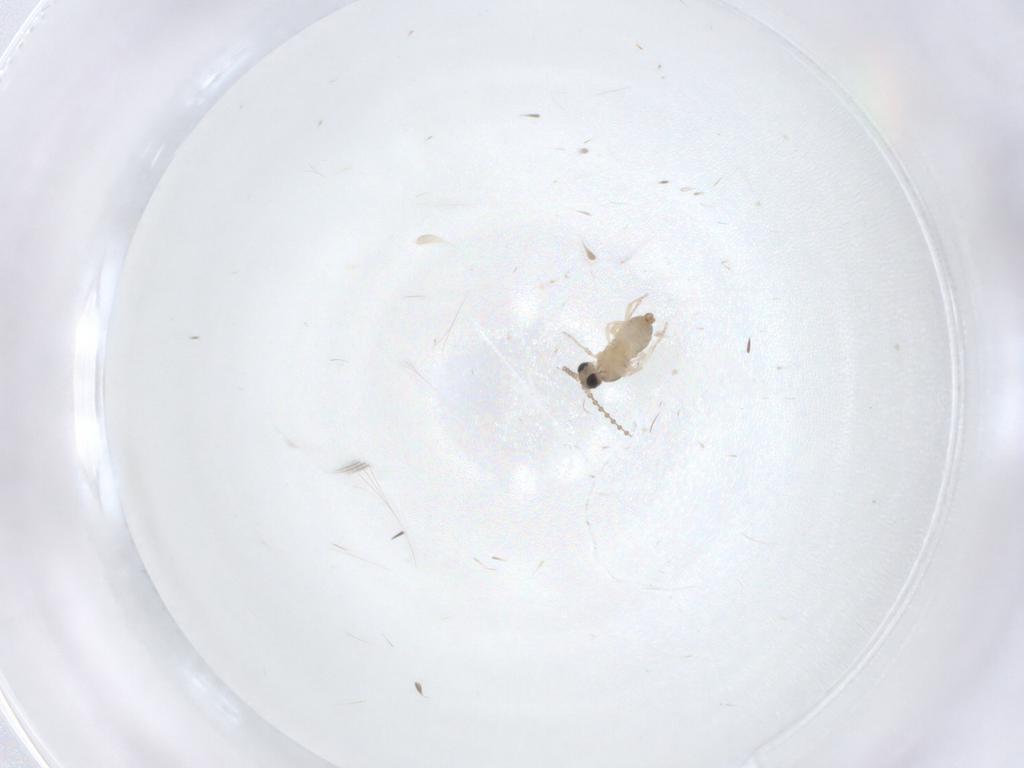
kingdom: Animalia
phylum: Arthropoda
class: Insecta
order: Diptera
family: Cecidomyiidae
